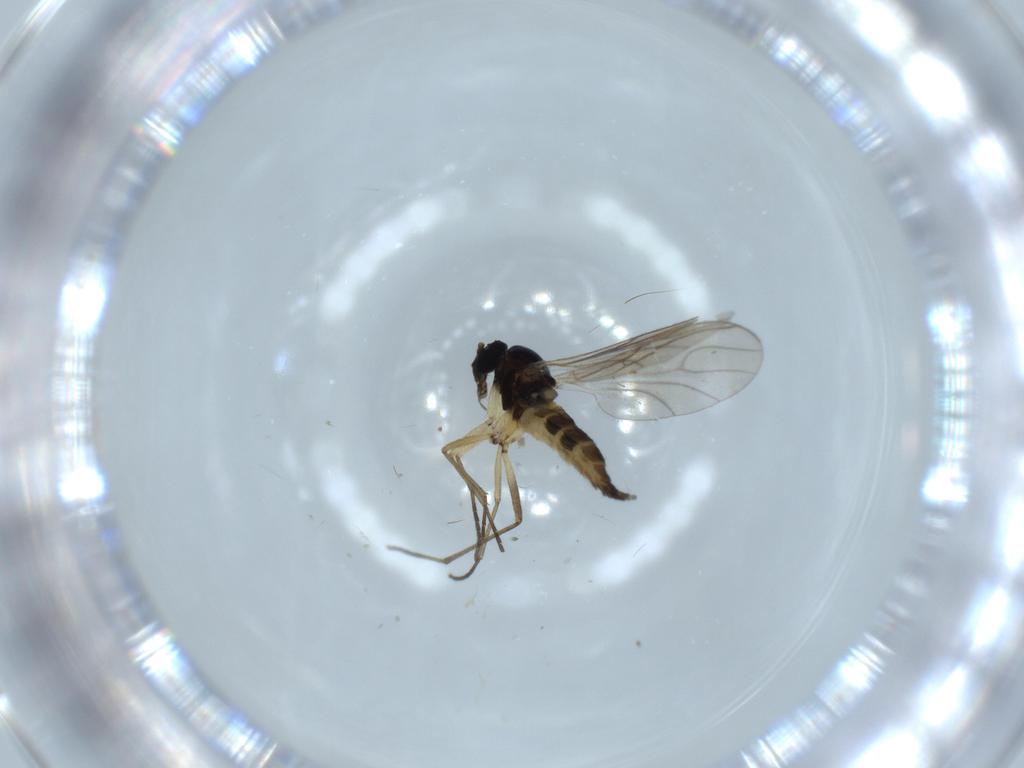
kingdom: Animalia
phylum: Arthropoda
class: Insecta
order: Diptera
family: Sciaridae
